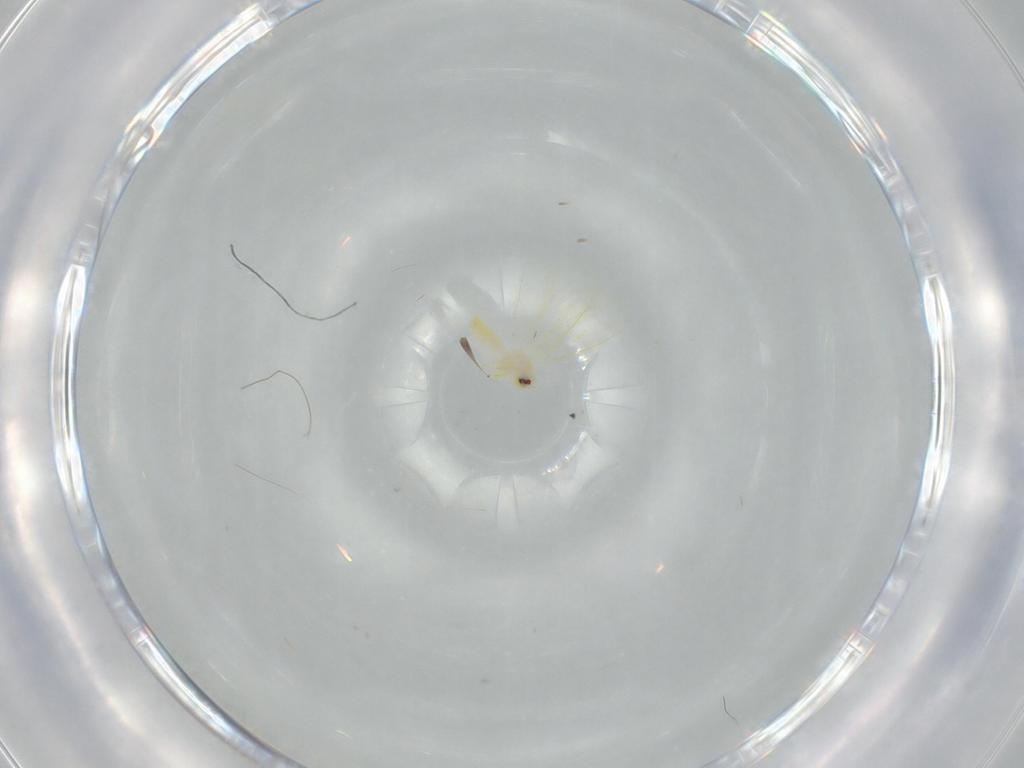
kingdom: Animalia
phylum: Arthropoda
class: Insecta
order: Hemiptera
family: Aleyrodidae
